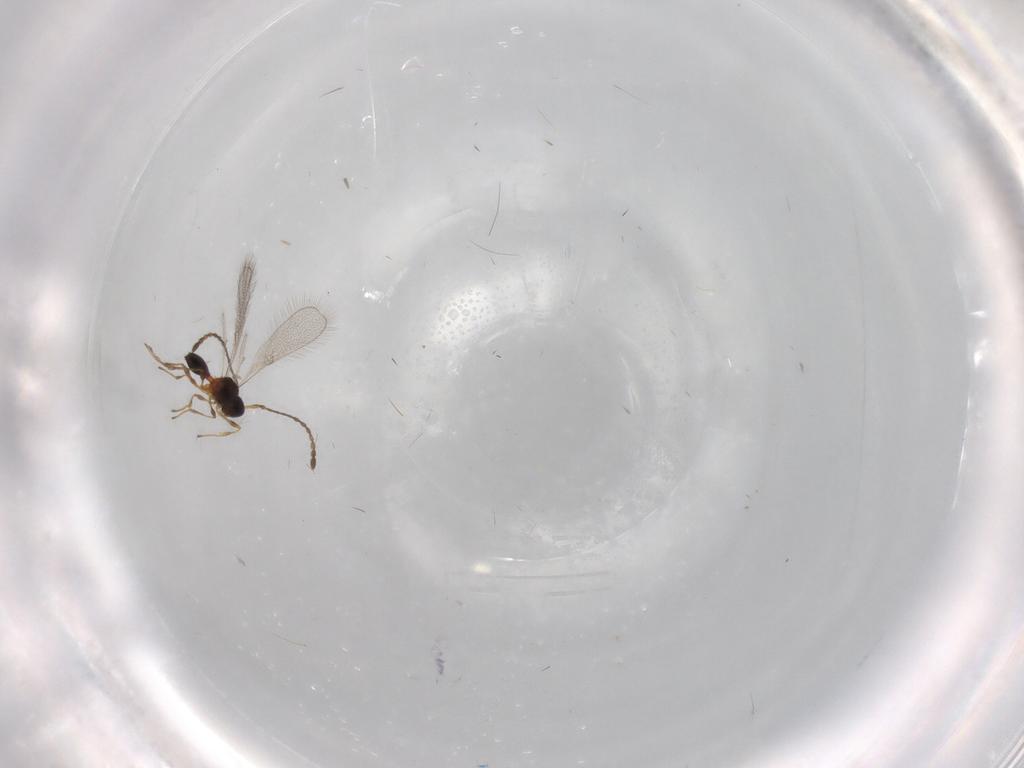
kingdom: Animalia
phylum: Arthropoda
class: Insecta
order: Hymenoptera
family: Diapriidae
